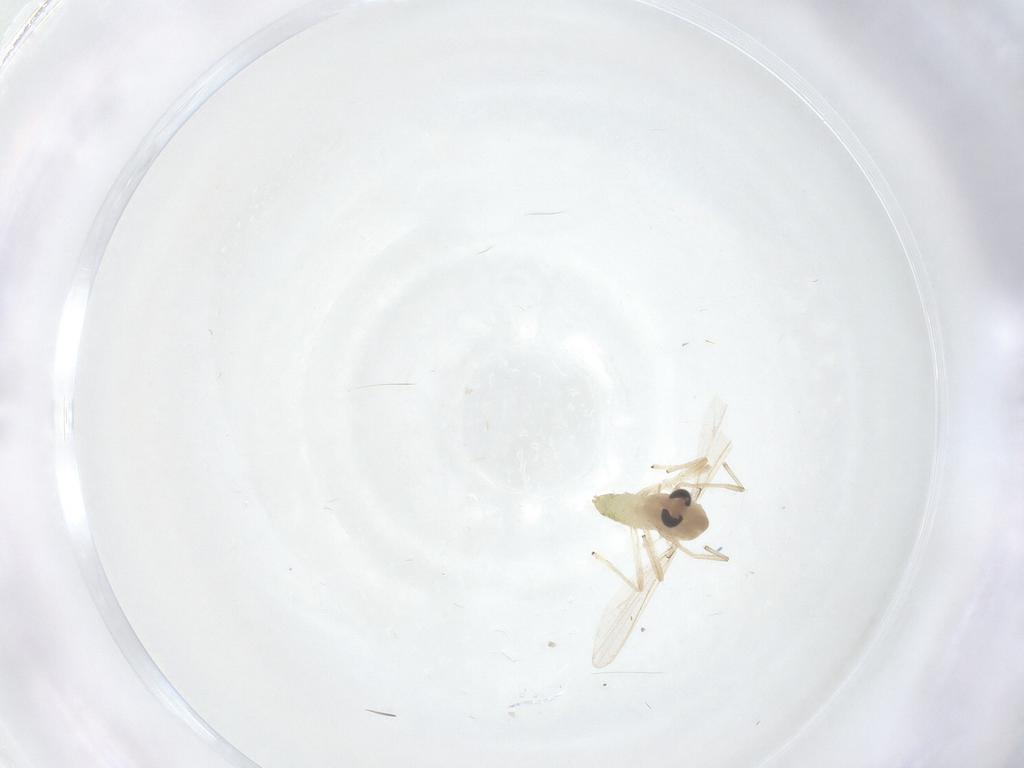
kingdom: Animalia
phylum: Arthropoda
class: Insecta
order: Diptera
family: Chironomidae
